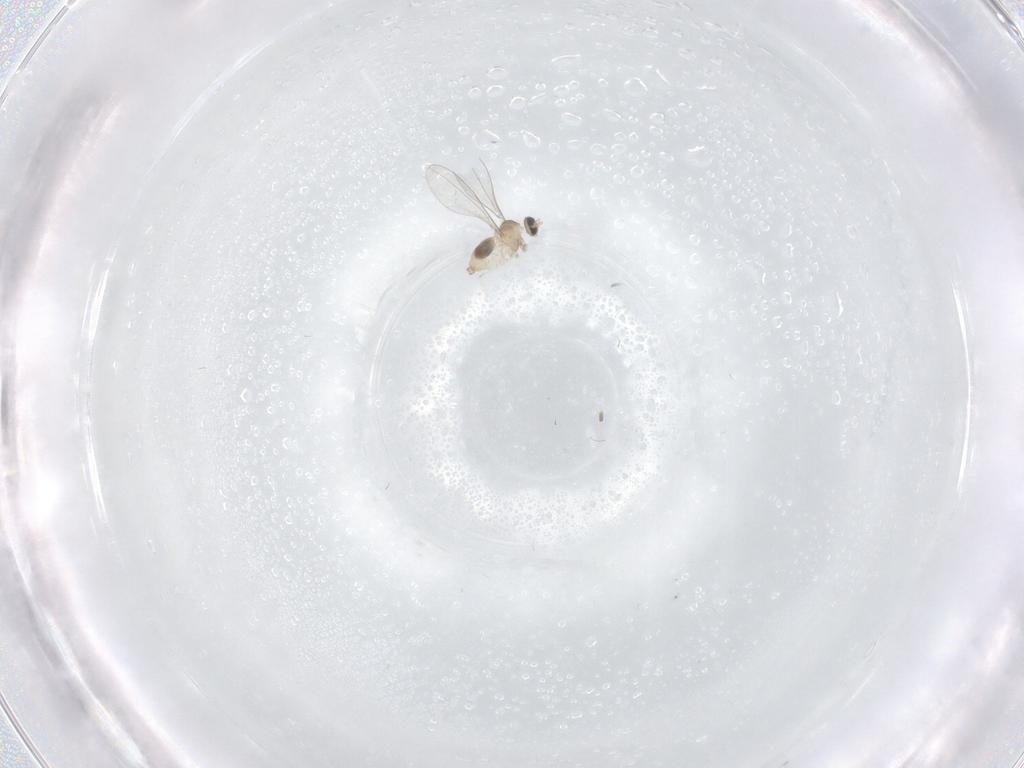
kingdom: Animalia
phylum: Arthropoda
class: Insecta
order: Diptera
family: Cecidomyiidae
